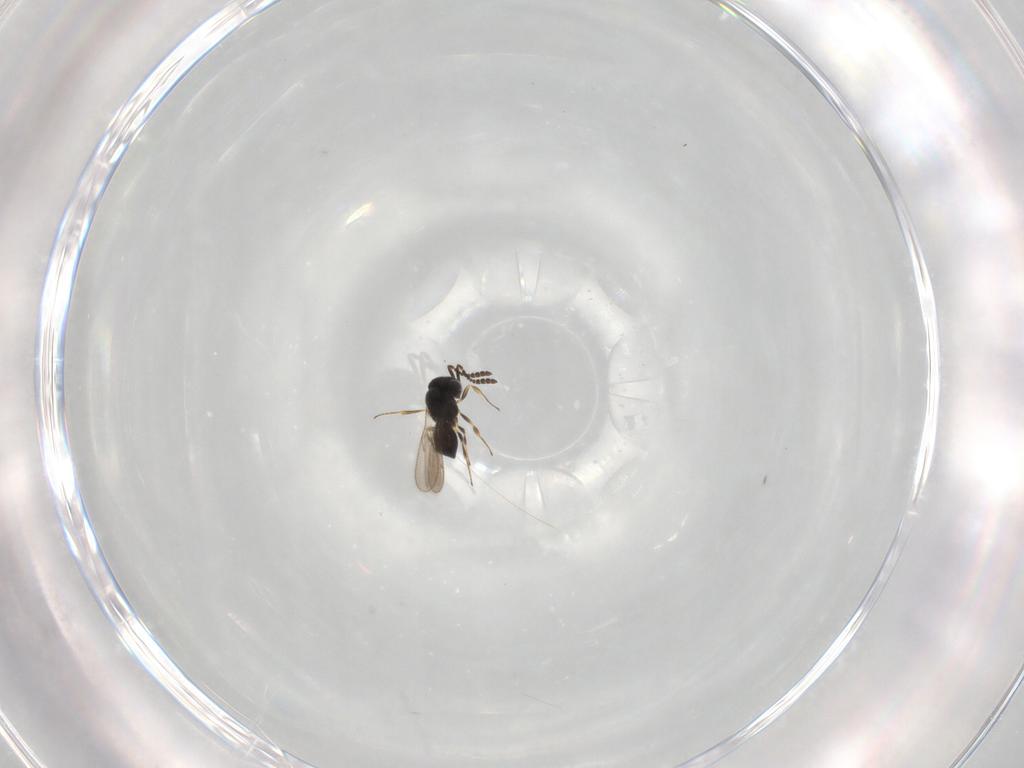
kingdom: Animalia
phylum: Arthropoda
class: Insecta
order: Hymenoptera
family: Scelionidae
